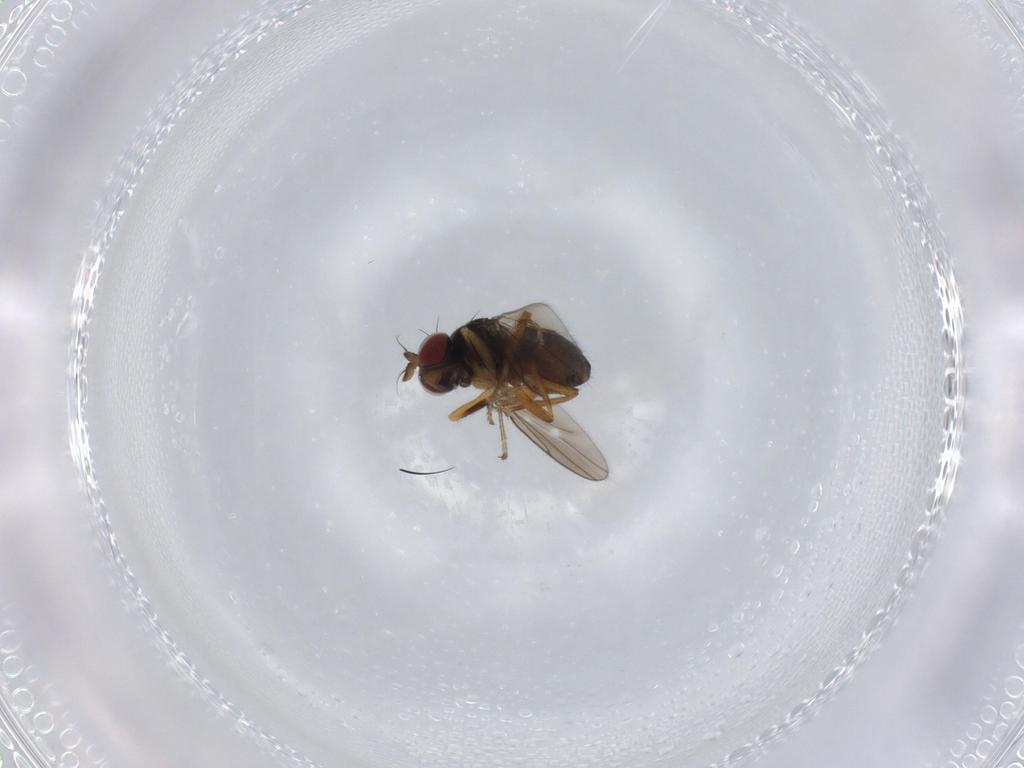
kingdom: Animalia
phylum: Arthropoda
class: Insecta
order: Diptera
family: Ephydridae
